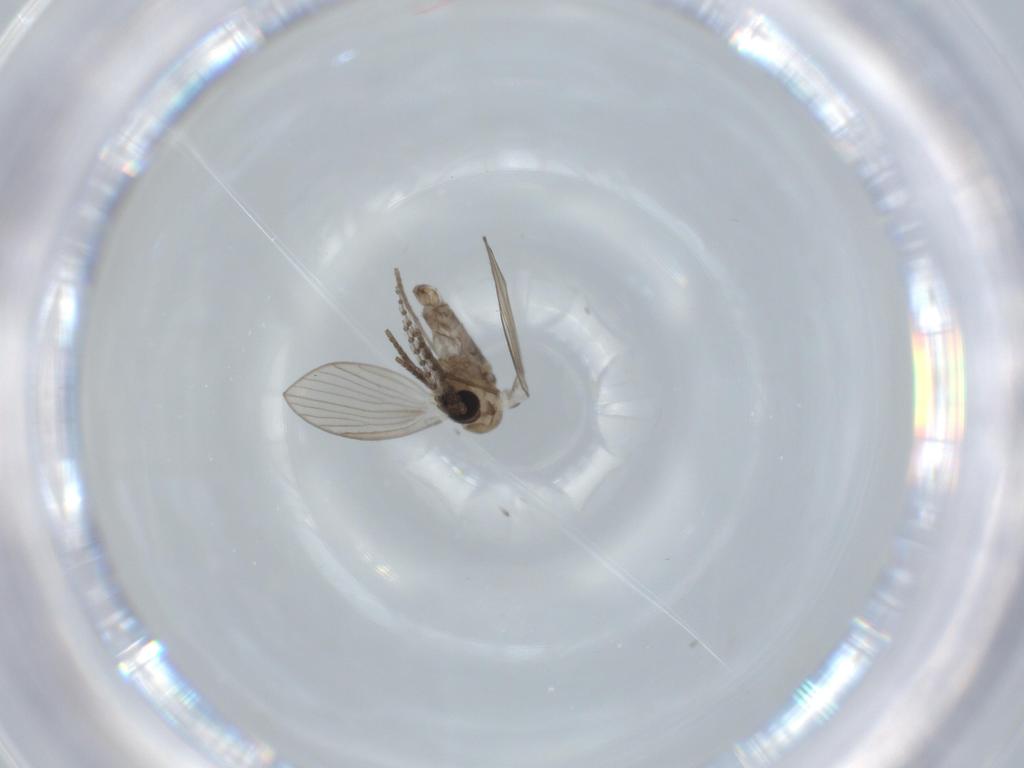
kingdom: Animalia
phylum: Arthropoda
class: Insecta
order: Diptera
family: Psychodidae
